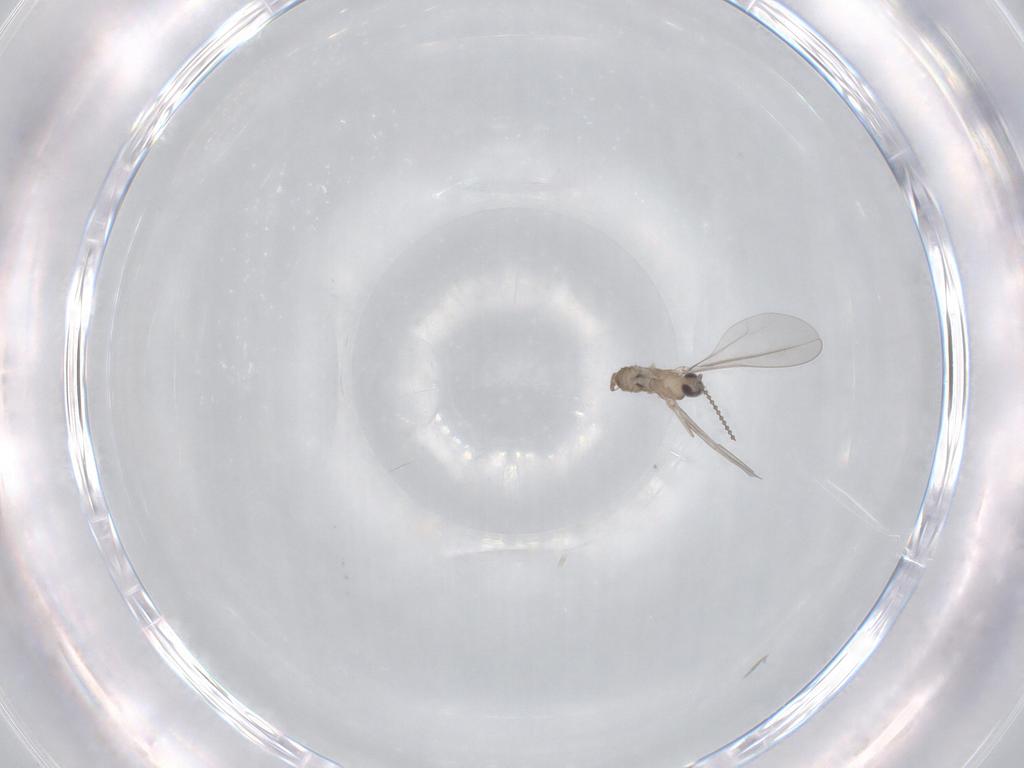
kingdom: Animalia
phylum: Arthropoda
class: Insecta
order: Diptera
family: Cecidomyiidae
